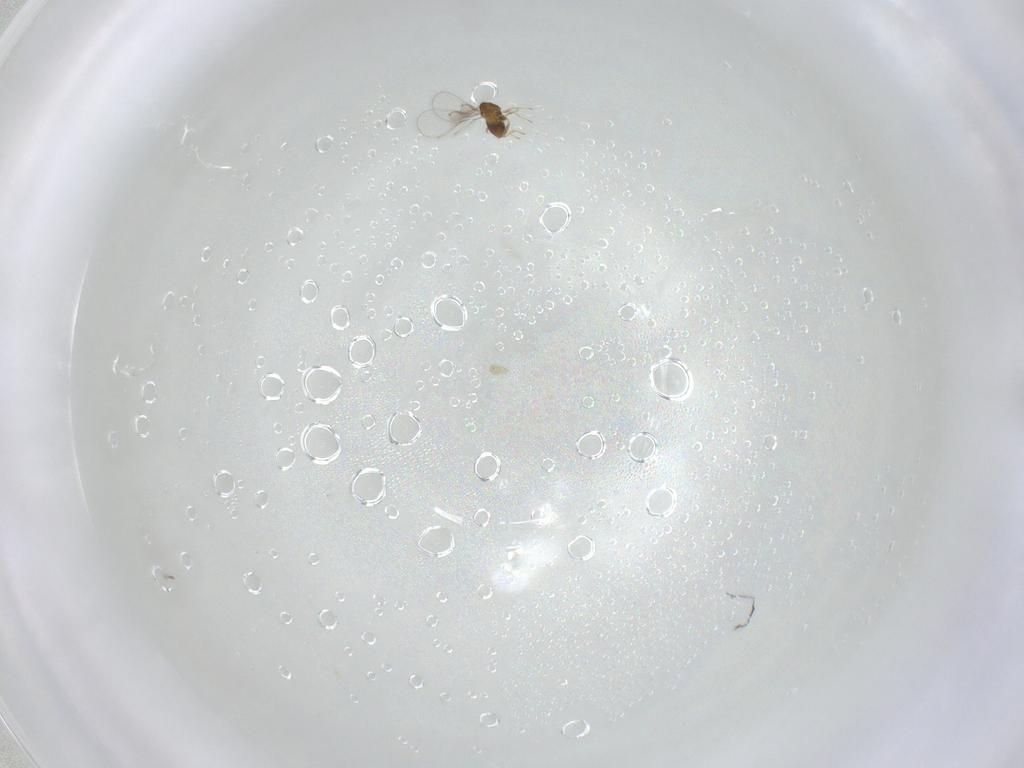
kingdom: Animalia
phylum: Arthropoda
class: Insecta
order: Hymenoptera
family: Trichogrammatidae
